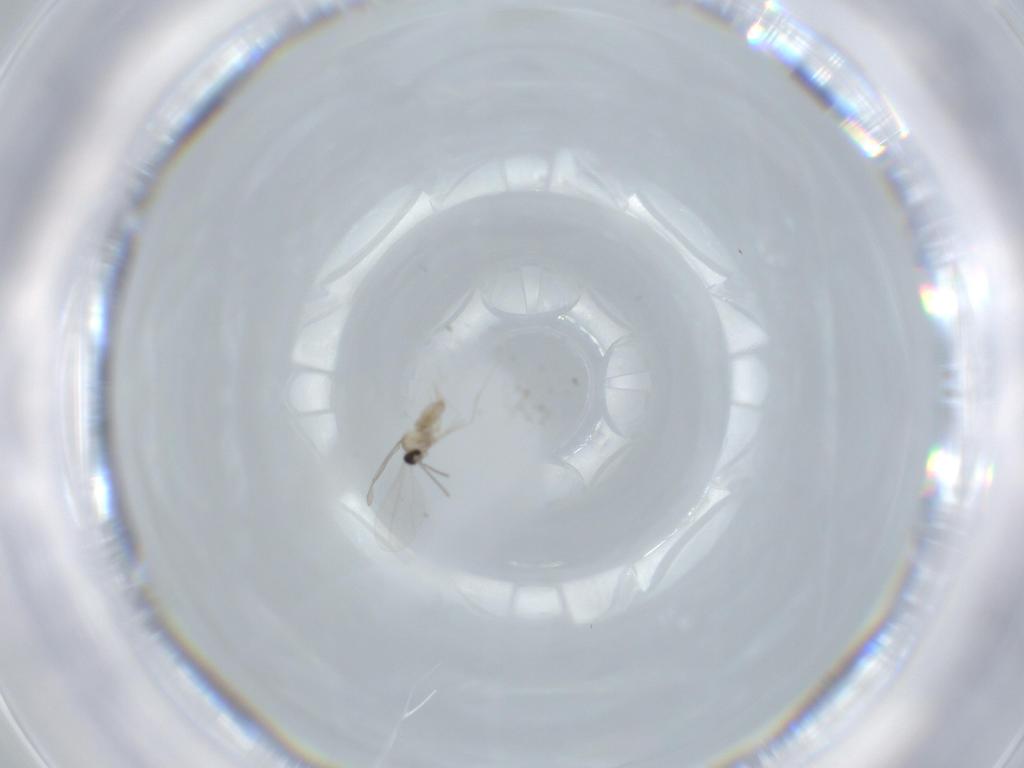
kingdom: Animalia
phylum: Arthropoda
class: Insecta
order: Diptera
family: Cecidomyiidae
